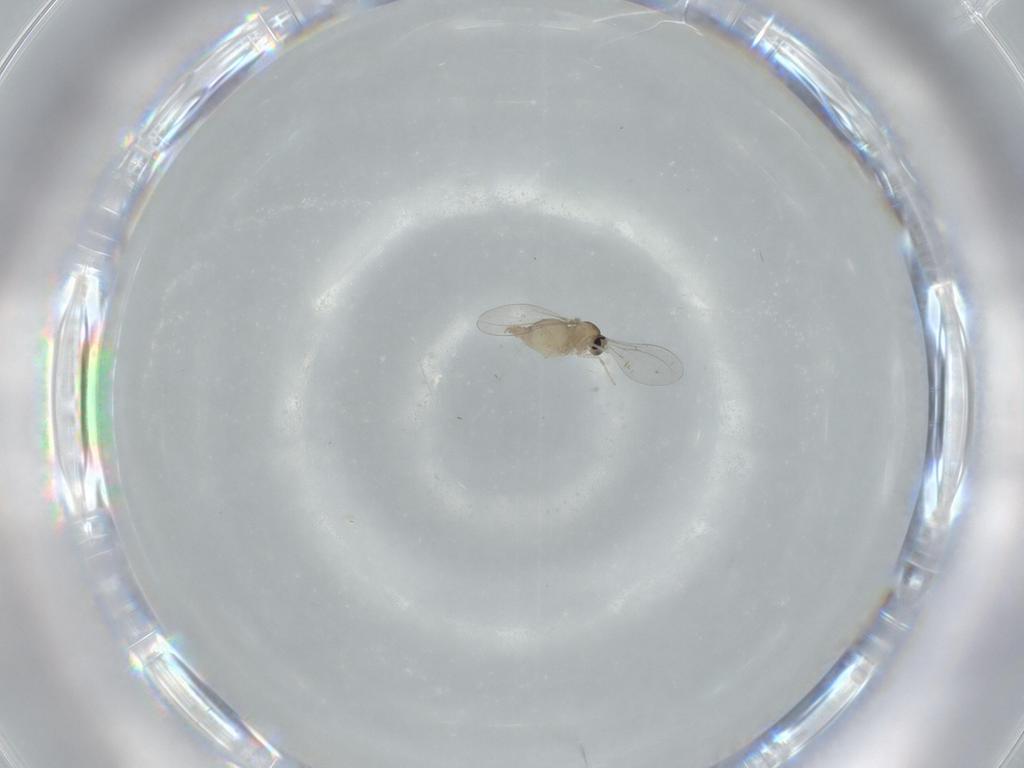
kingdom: Animalia
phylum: Arthropoda
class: Insecta
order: Diptera
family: Cecidomyiidae
